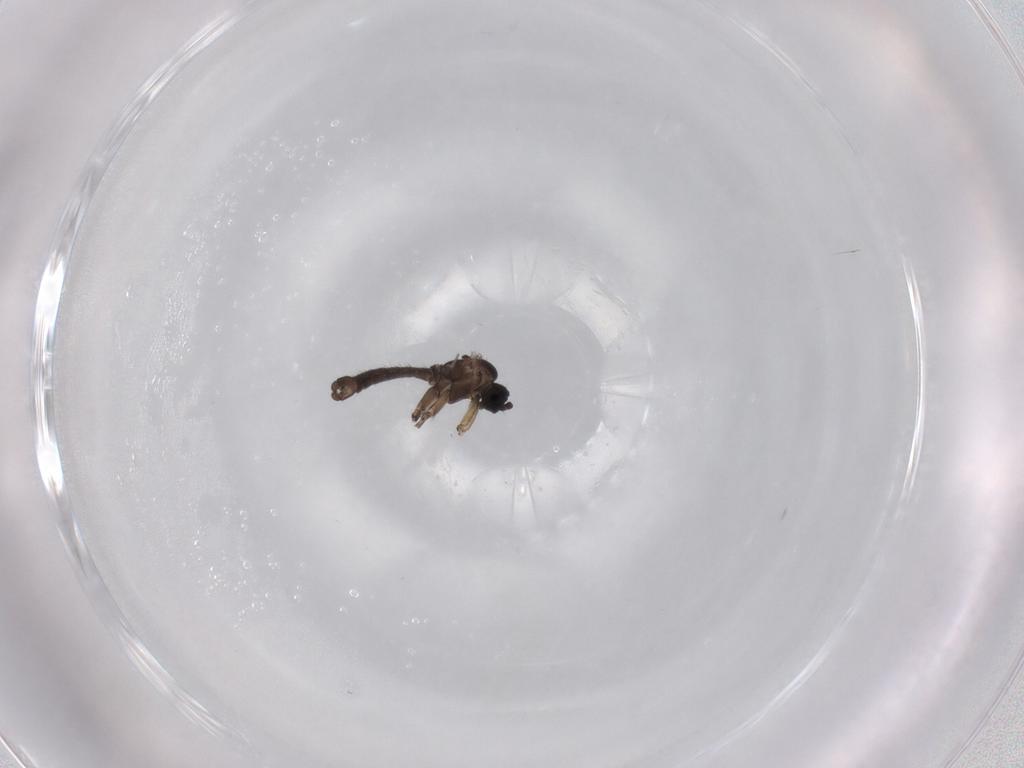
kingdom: Animalia
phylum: Arthropoda
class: Insecta
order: Diptera
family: Sciaridae
